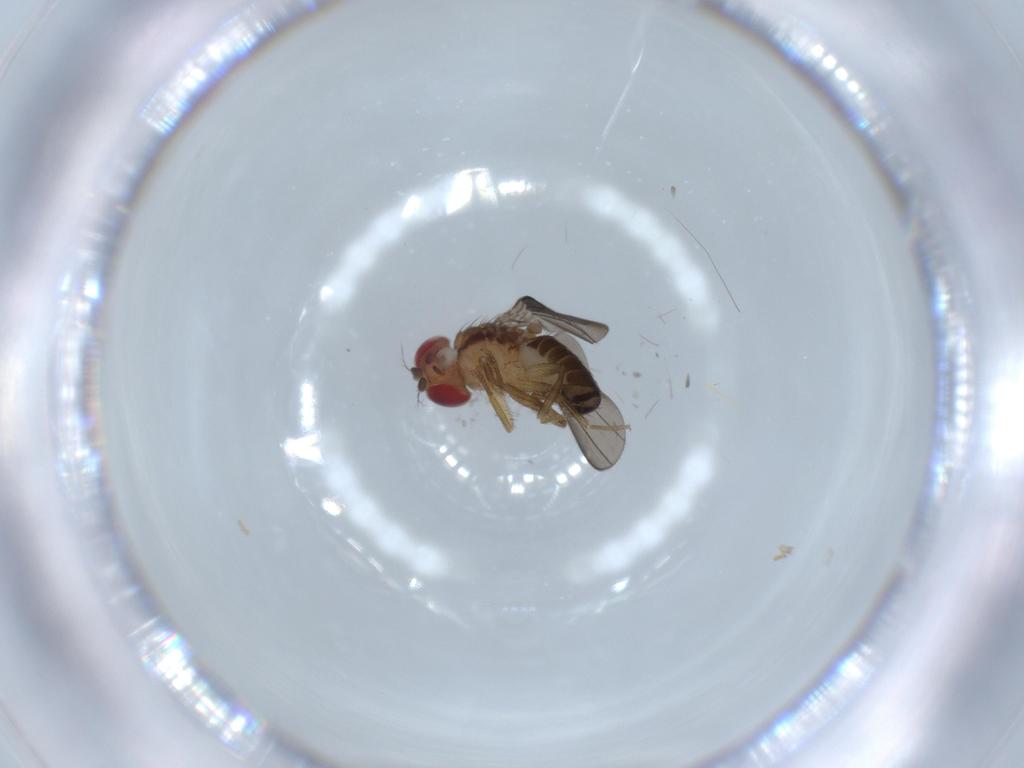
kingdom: Animalia
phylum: Arthropoda
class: Insecta
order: Diptera
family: Drosophilidae
